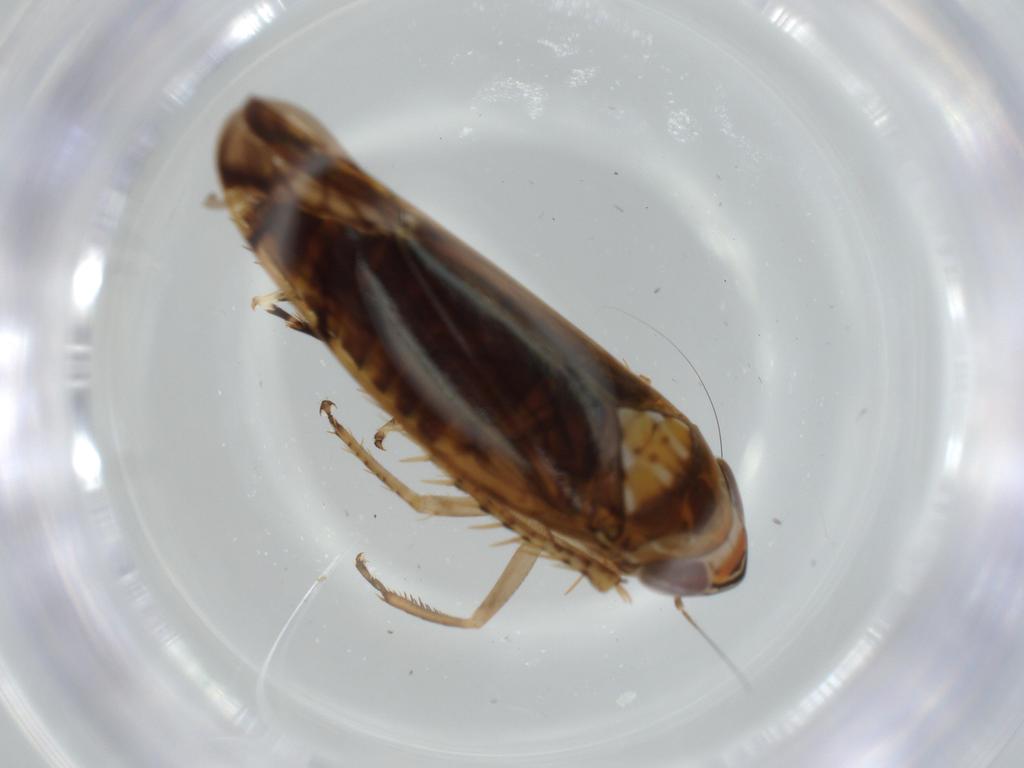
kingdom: Animalia
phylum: Arthropoda
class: Insecta
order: Hemiptera
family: Cicadellidae
